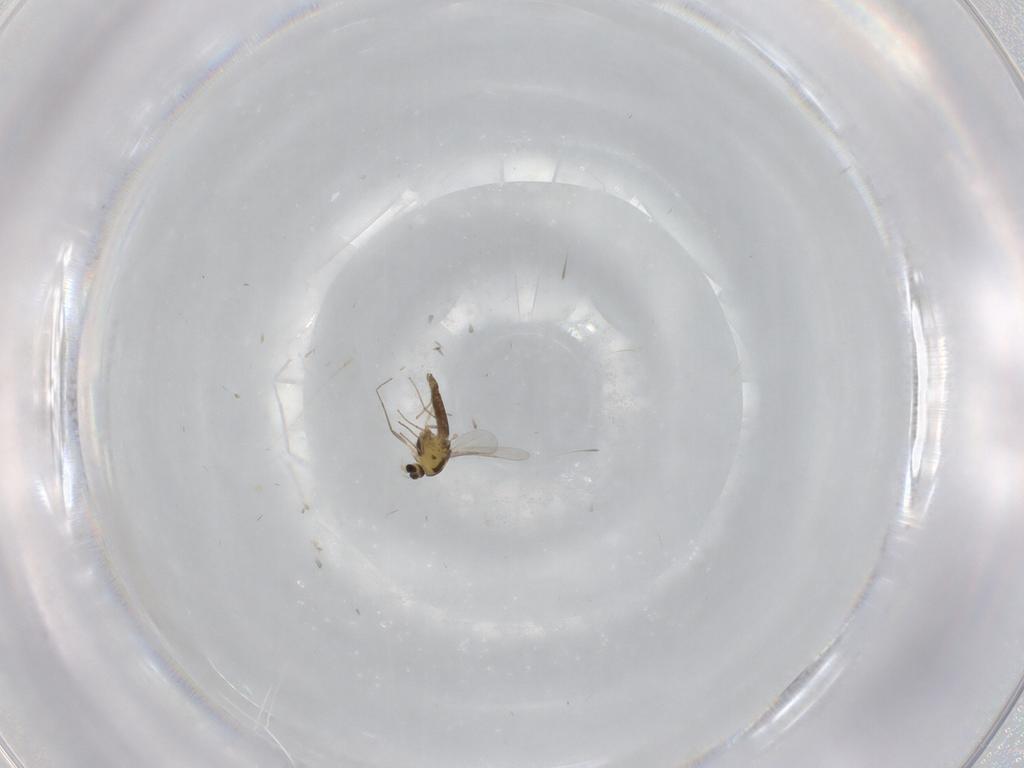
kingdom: Animalia
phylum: Arthropoda
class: Insecta
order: Diptera
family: Chironomidae
